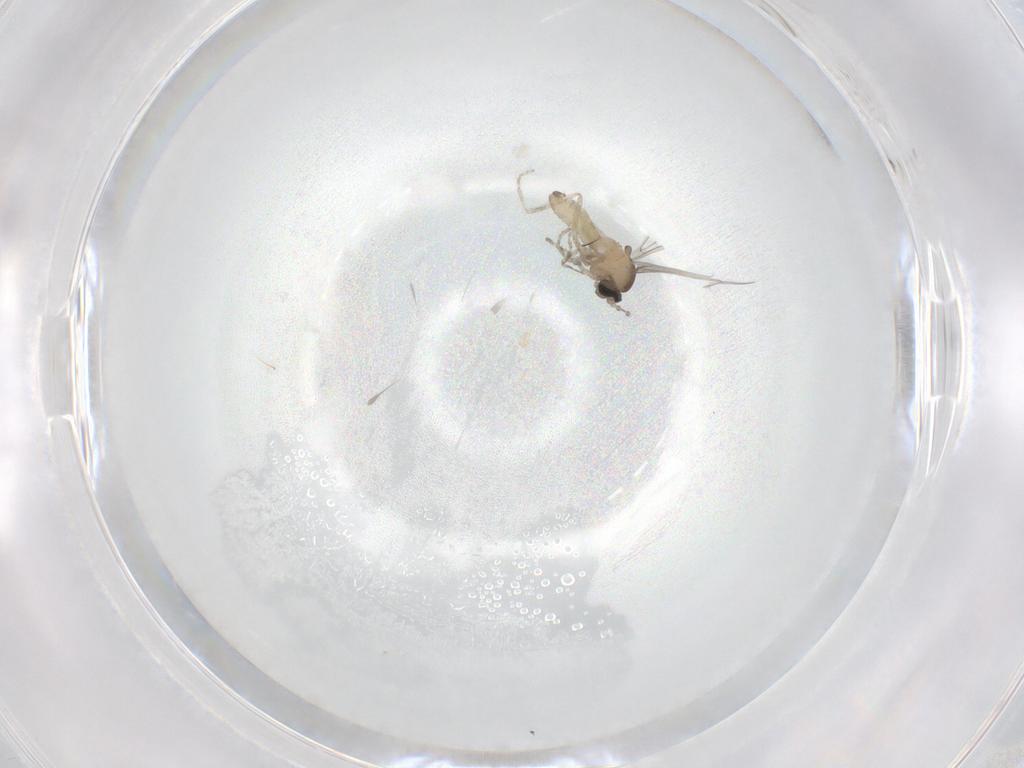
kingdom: Animalia
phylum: Arthropoda
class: Insecta
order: Diptera
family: Cecidomyiidae
